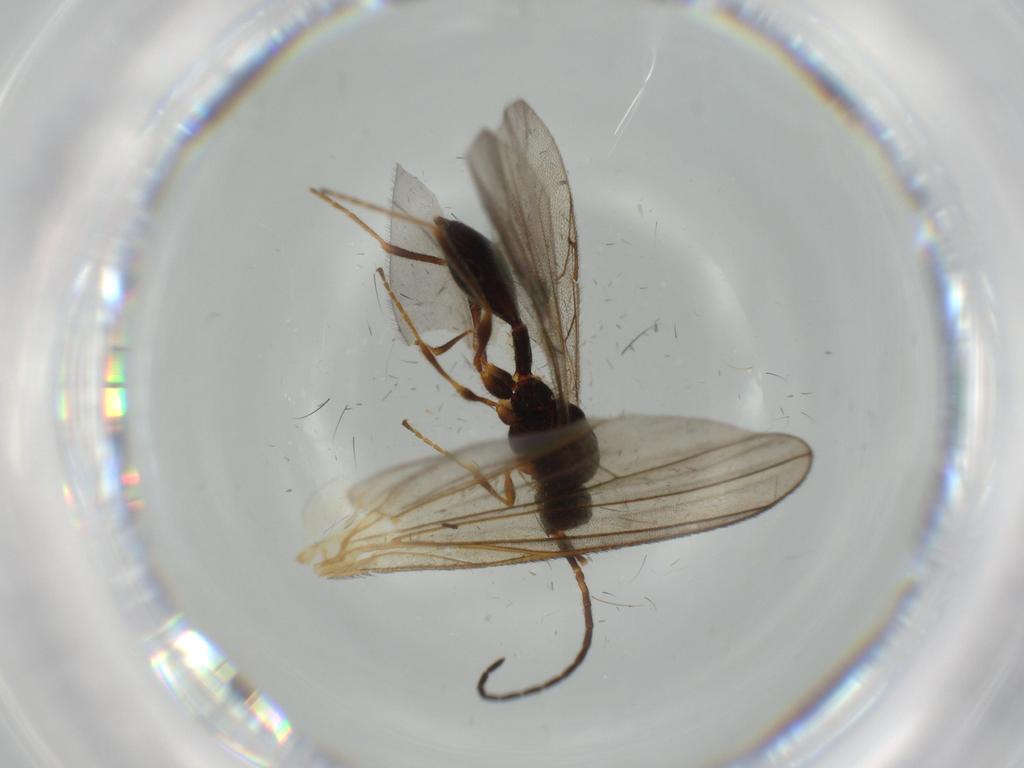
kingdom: Animalia
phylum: Arthropoda
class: Insecta
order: Hymenoptera
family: Diapriidae
